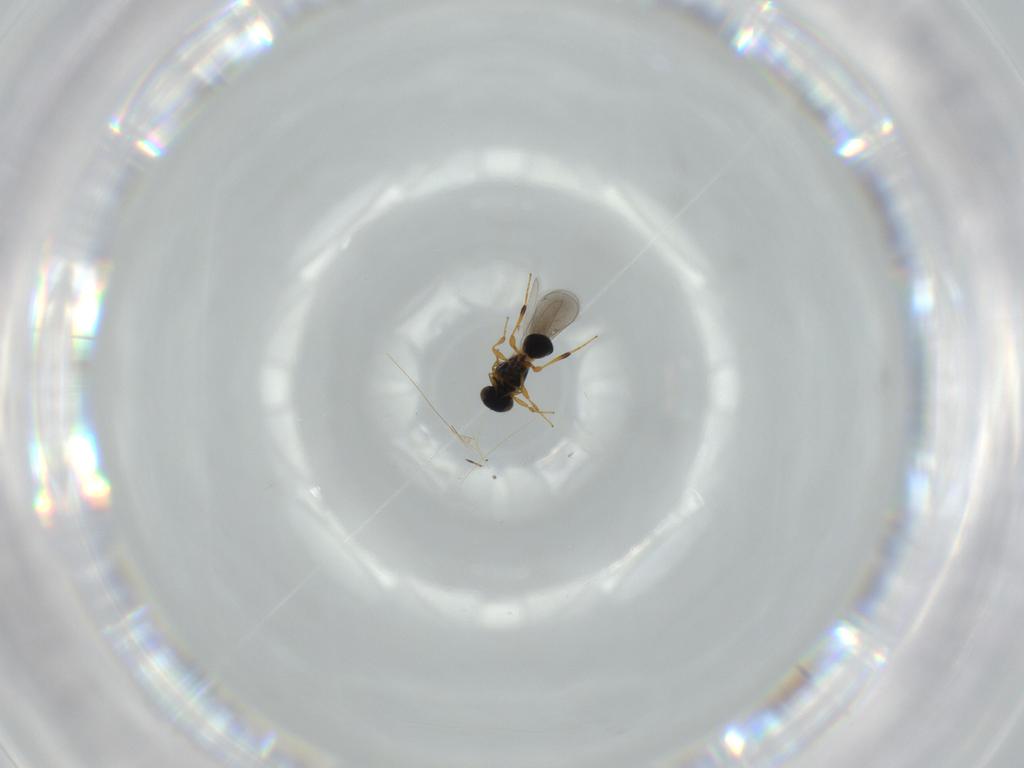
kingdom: Animalia
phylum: Arthropoda
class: Insecta
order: Hymenoptera
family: Platygastridae
